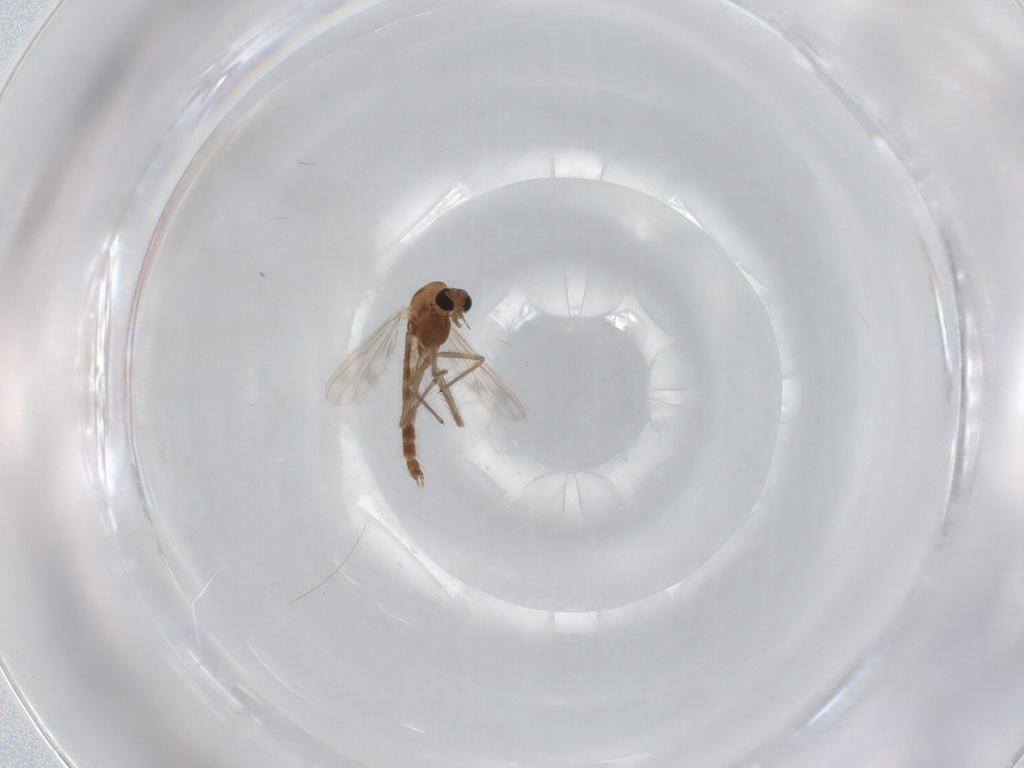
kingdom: Animalia
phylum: Arthropoda
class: Insecta
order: Diptera
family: Chironomidae
